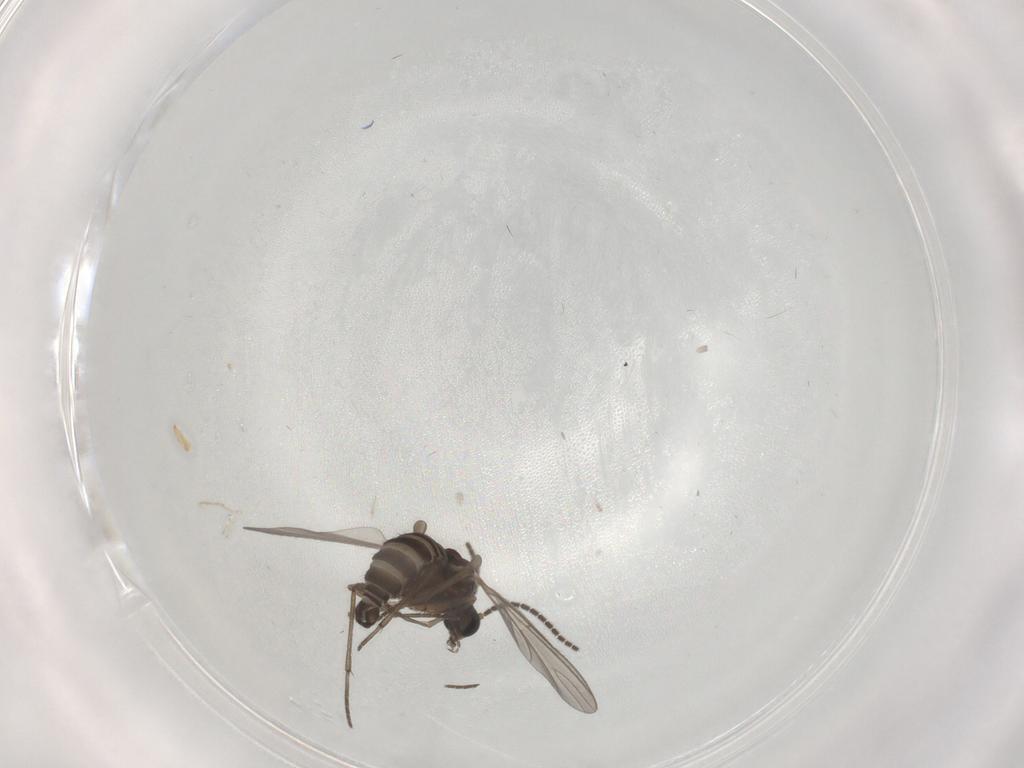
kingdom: Animalia
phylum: Arthropoda
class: Insecta
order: Diptera
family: Sciaridae
